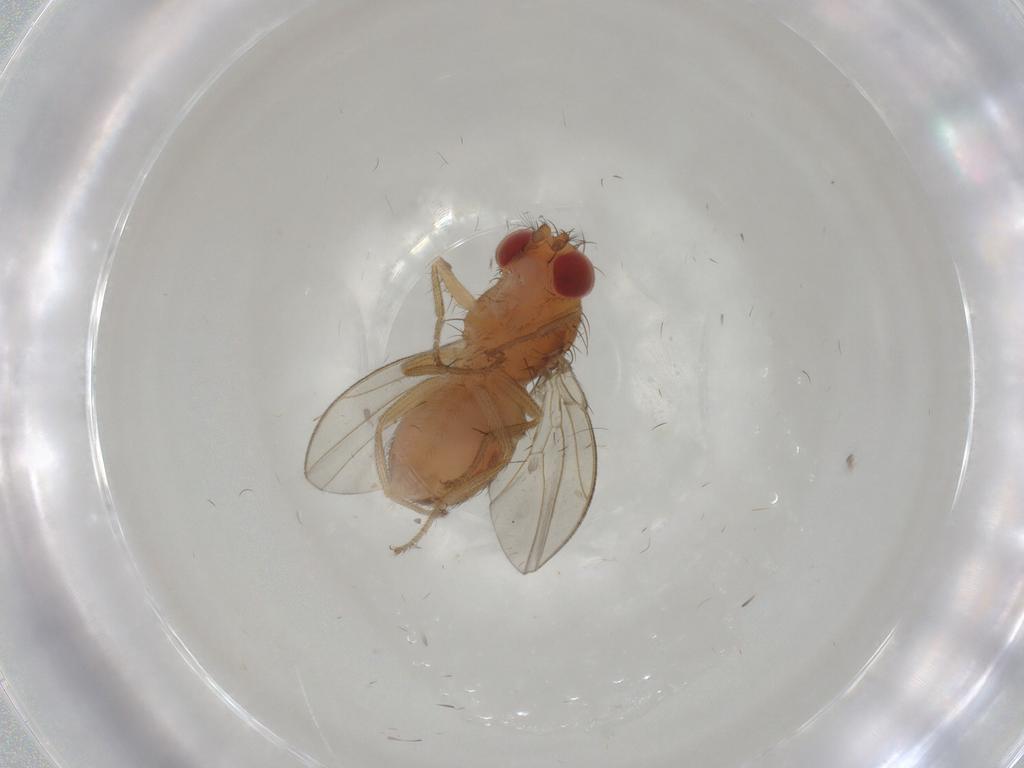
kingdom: Animalia
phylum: Arthropoda
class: Insecta
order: Diptera
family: Drosophilidae
